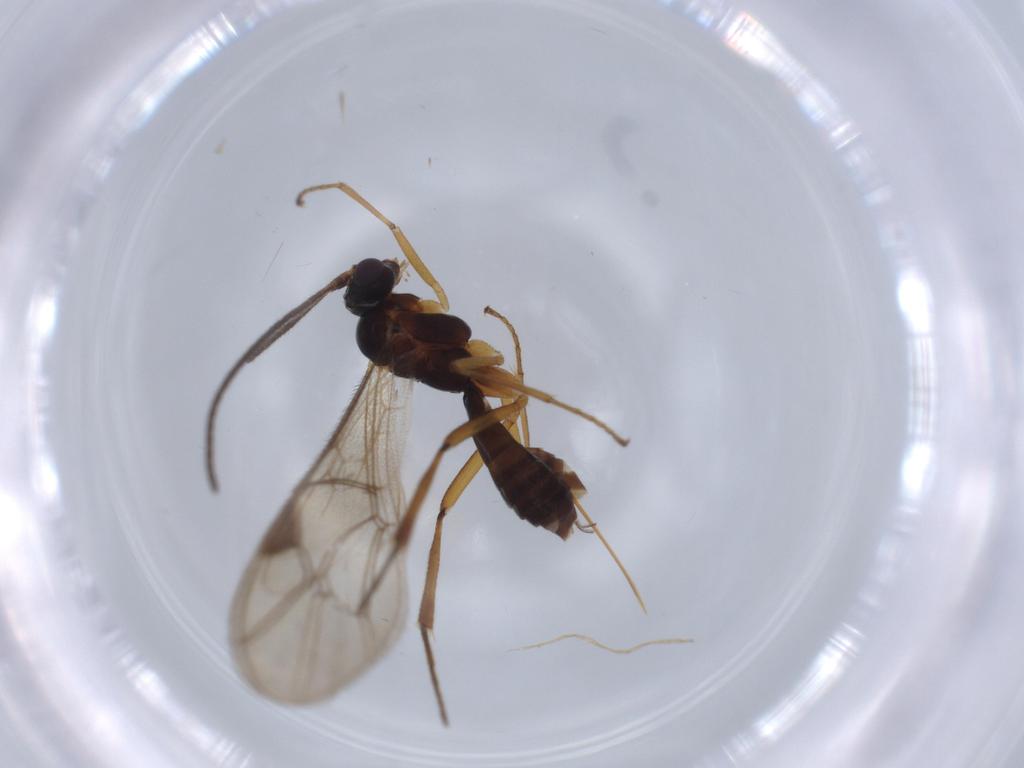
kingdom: Animalia
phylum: Arthropoda
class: Insecta
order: Hymenoptera
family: Ichneumonidae
